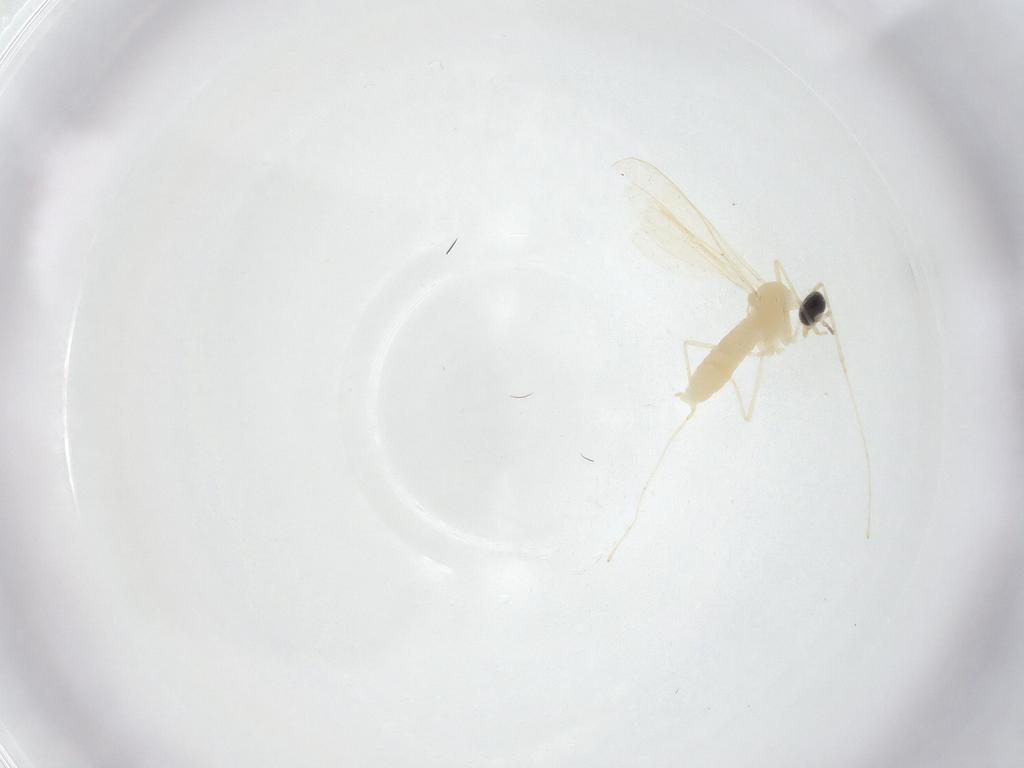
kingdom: Animalia
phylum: Arthropoda
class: Insecta
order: Diptera
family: Cecidomyiidae
